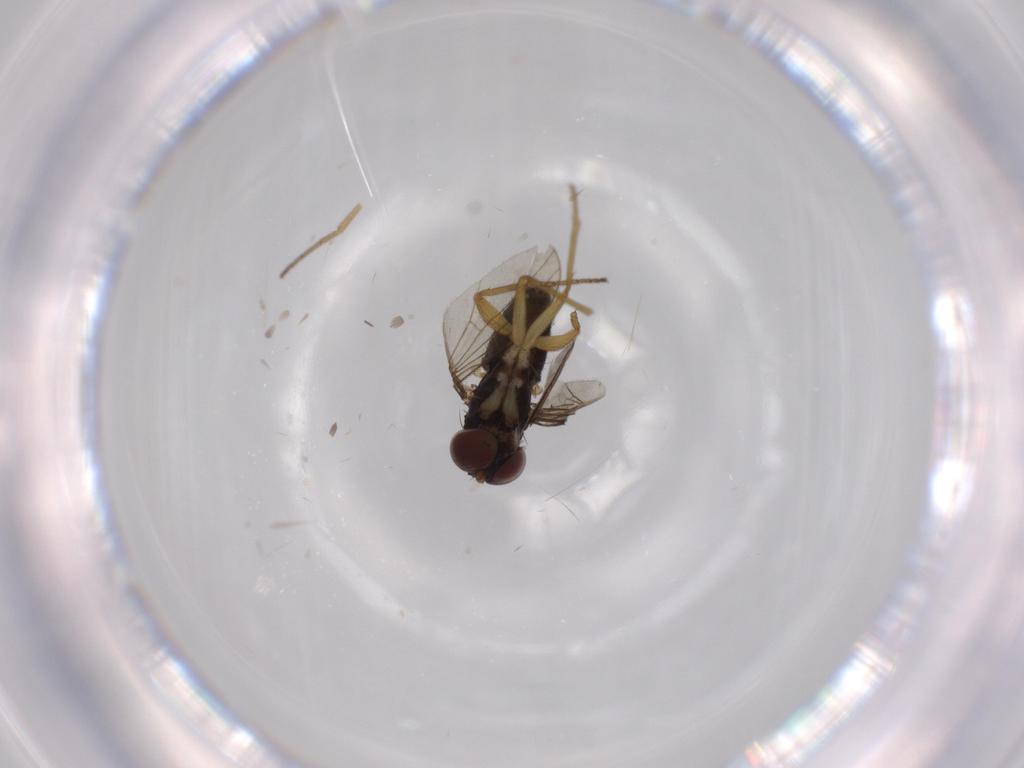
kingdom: Animalia
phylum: Arthropoda
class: Insecta
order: Diptera
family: Dolichopodidae
